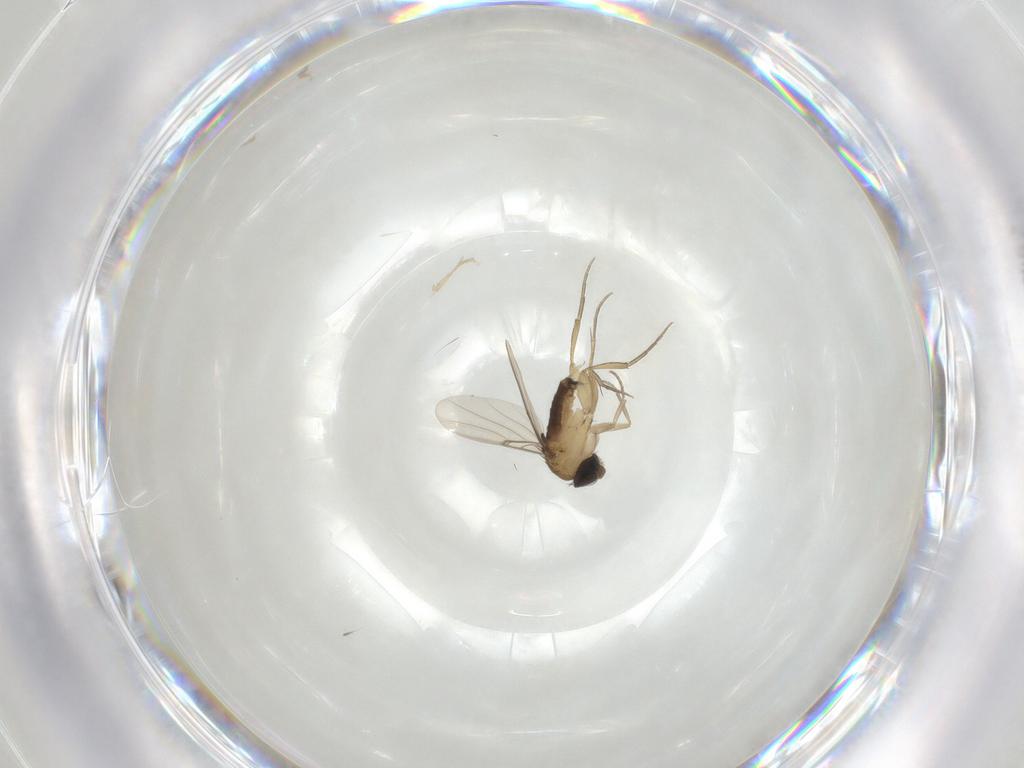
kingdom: Animalia
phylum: Arthropoda
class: Insecta
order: Diptera
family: Phoridae
